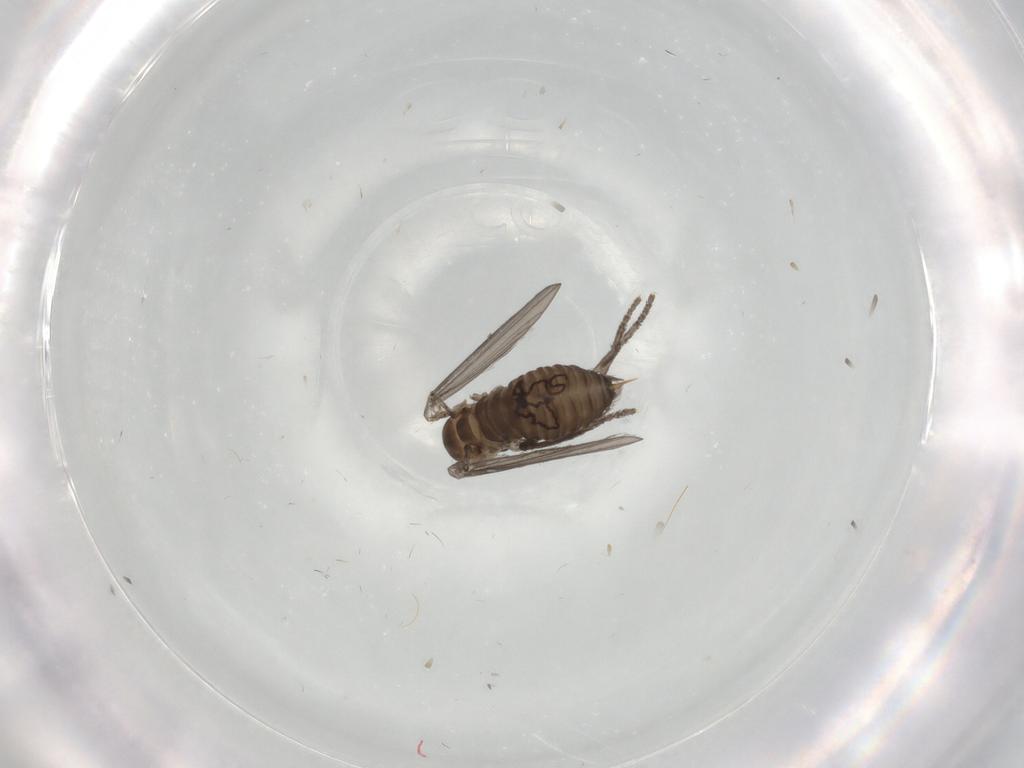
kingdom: Animalia
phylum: Arthropoda
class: Insecta
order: Diptera
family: Psychodidae
